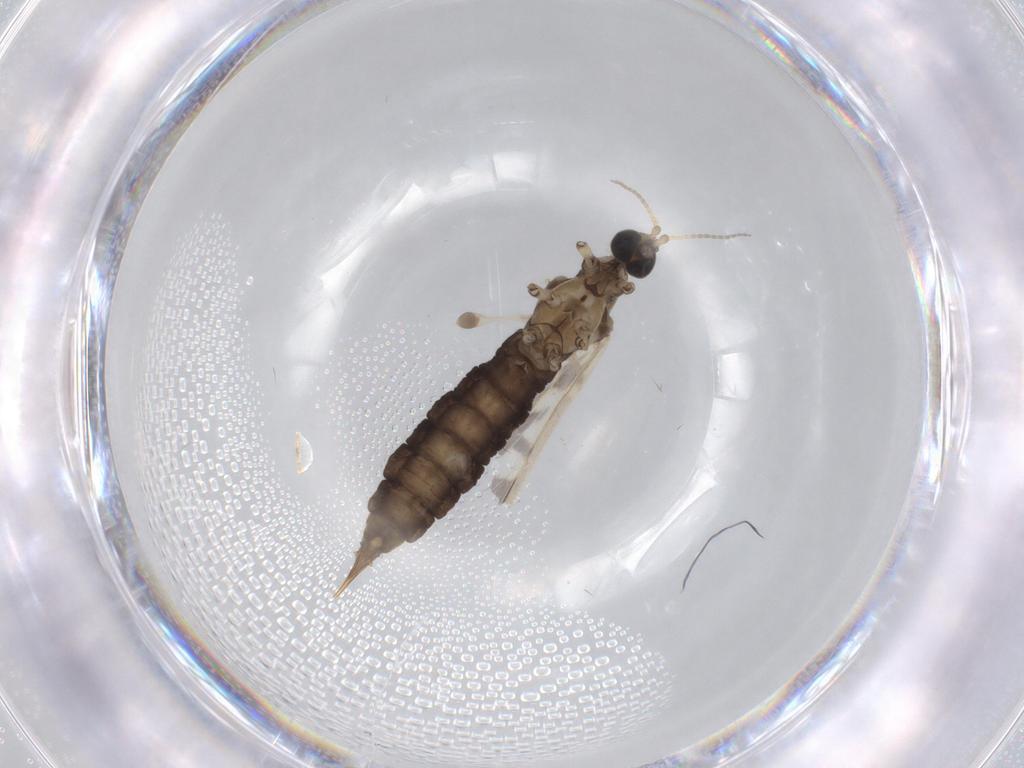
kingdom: Animalia
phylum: Arthropoda
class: Insecta
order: Diptera
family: Limoniidae
